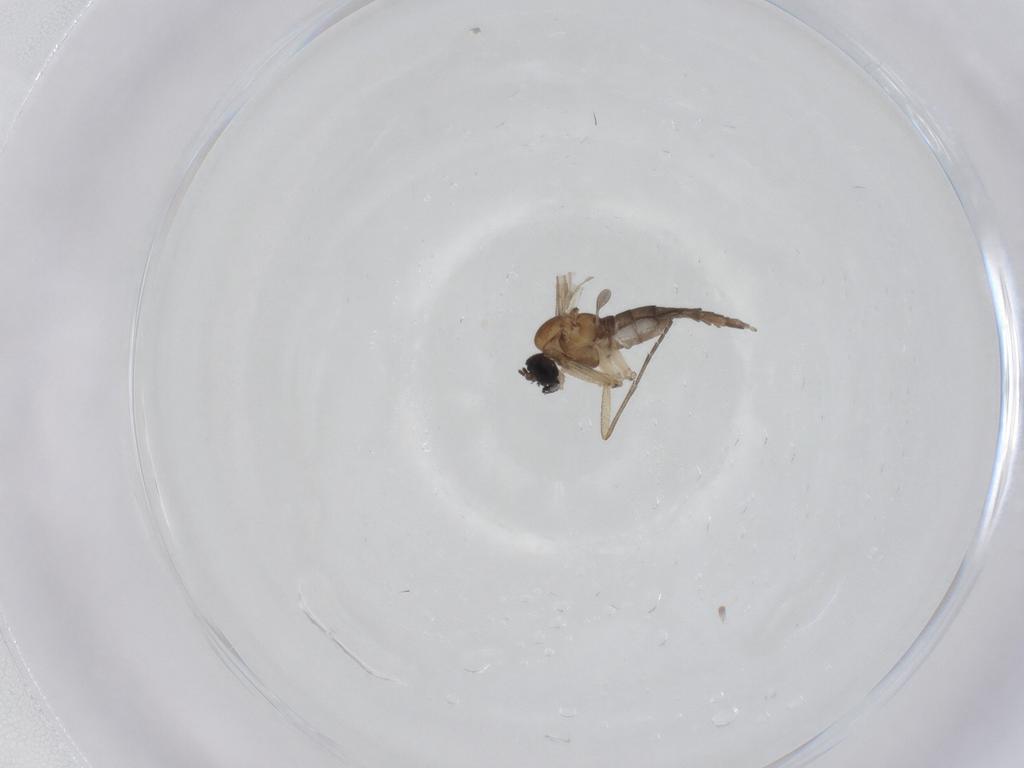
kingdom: Animalia
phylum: Arthropoda
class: Insecta
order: Diptera
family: Sciaridae
